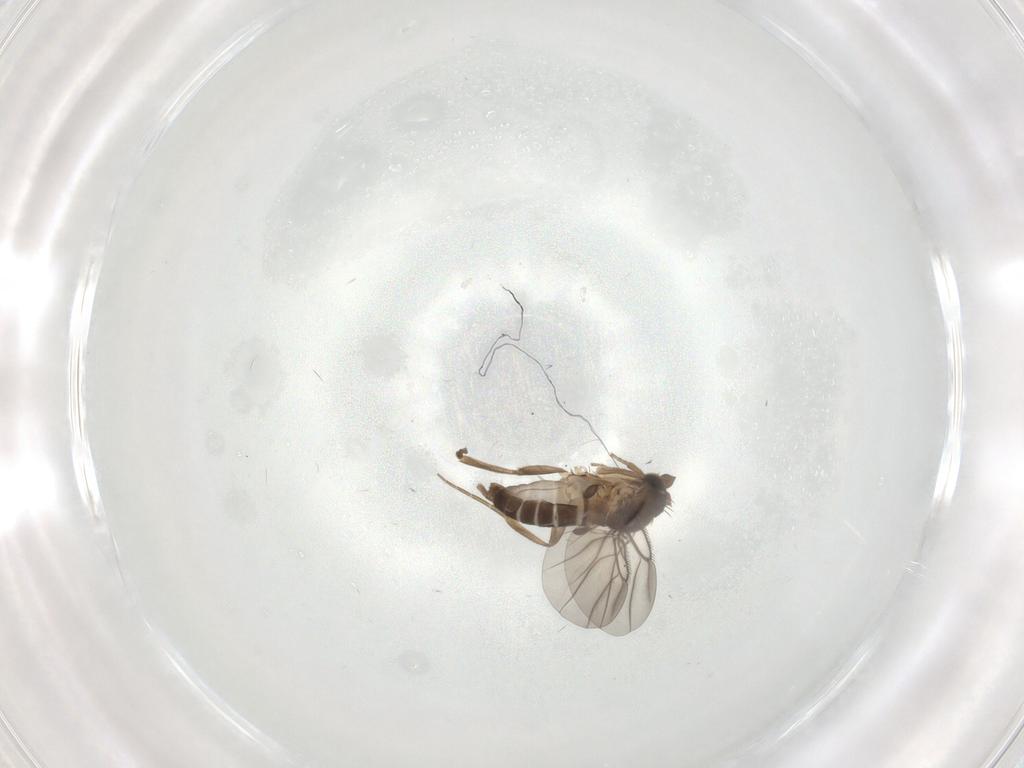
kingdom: Animalia
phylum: Arthropoda
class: Insecta
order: Diptera
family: Phoridae
